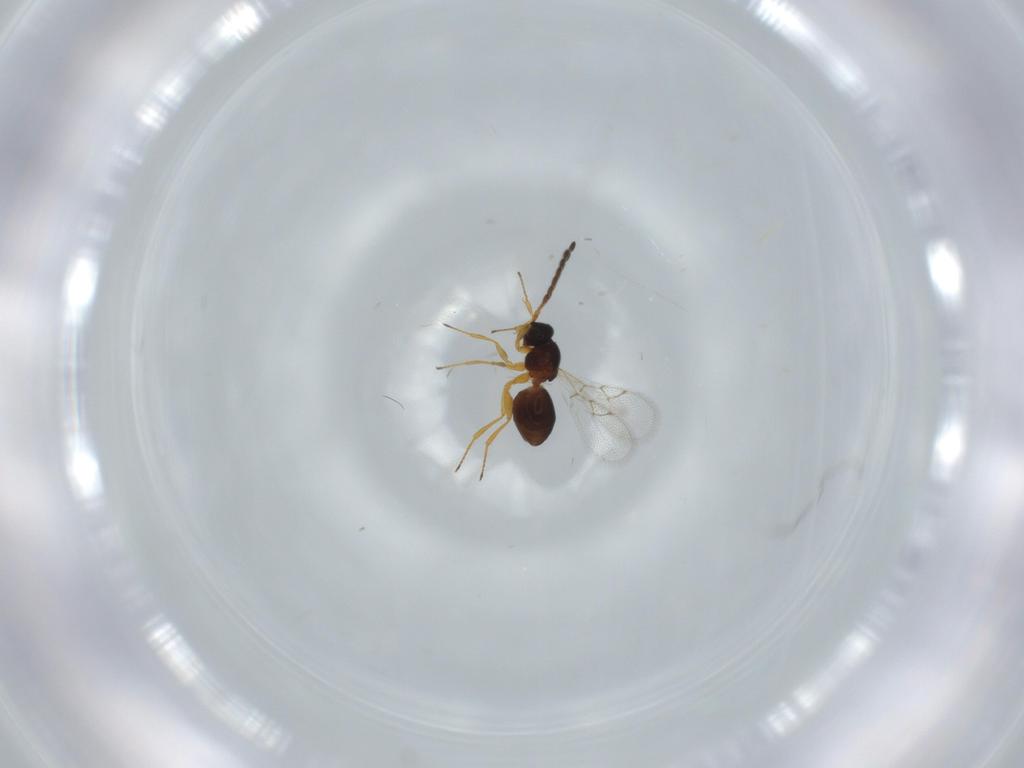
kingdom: Animalia
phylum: Arthropoda
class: Insecta
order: Hymenoptera
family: Figitidae
